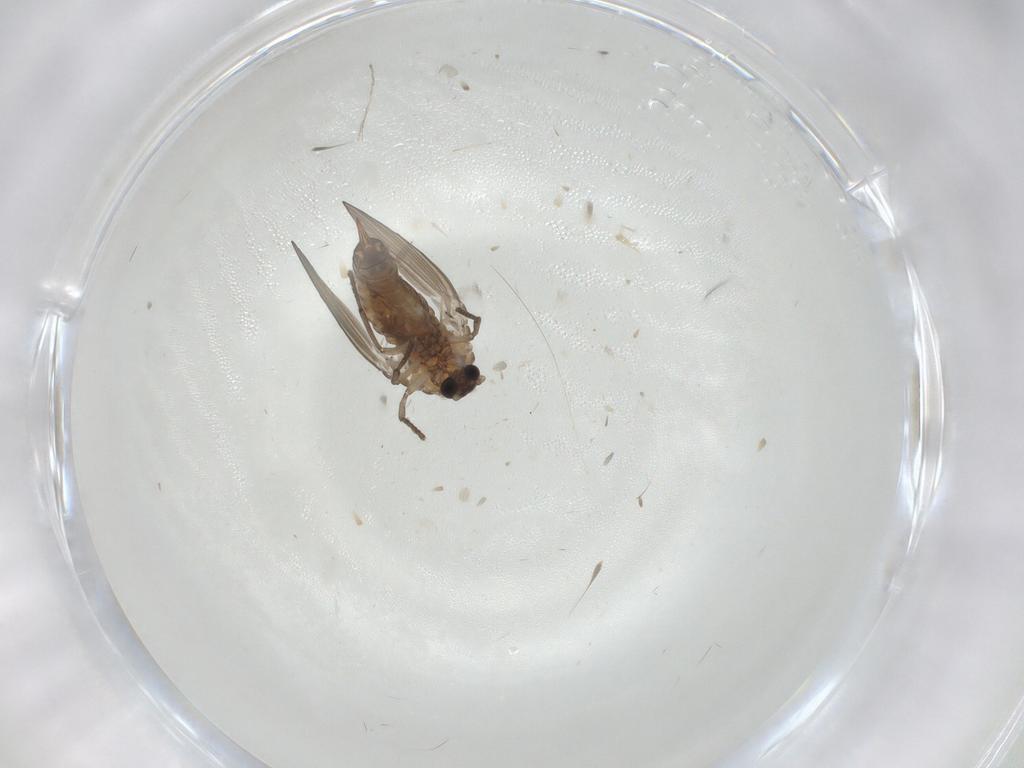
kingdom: Animalia
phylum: Arthropoda
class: Insecta
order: Diptera
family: Psychodidae
